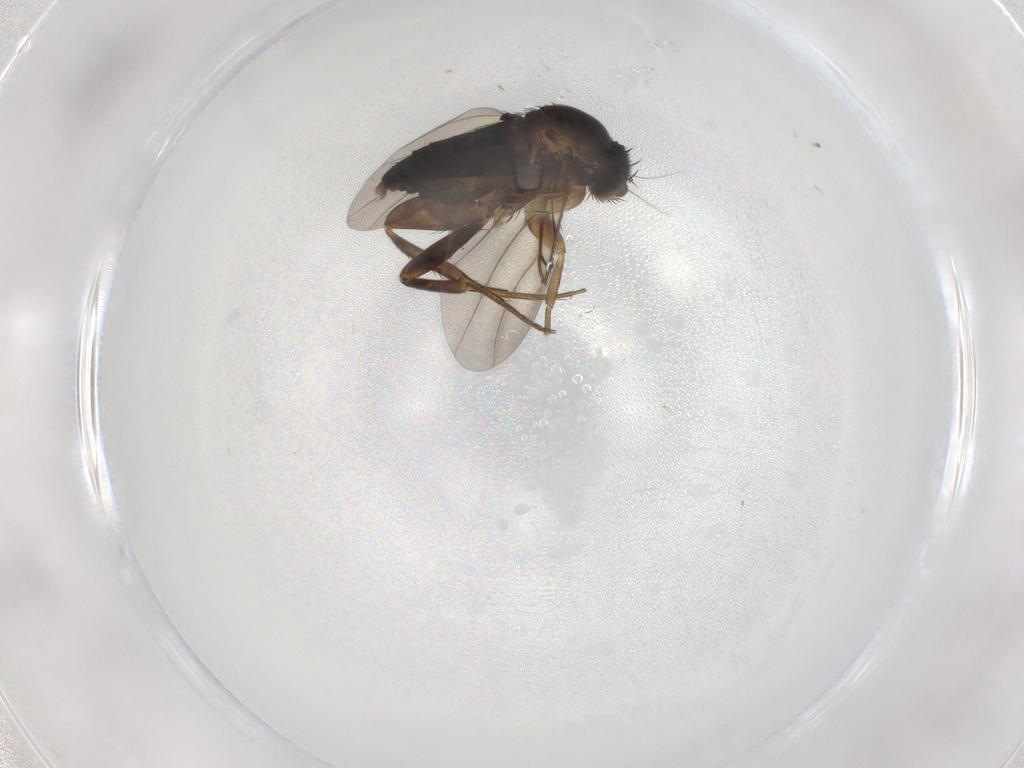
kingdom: Animalia
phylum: Arthropoda
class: Insecta
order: Diptera
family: Phoridae
